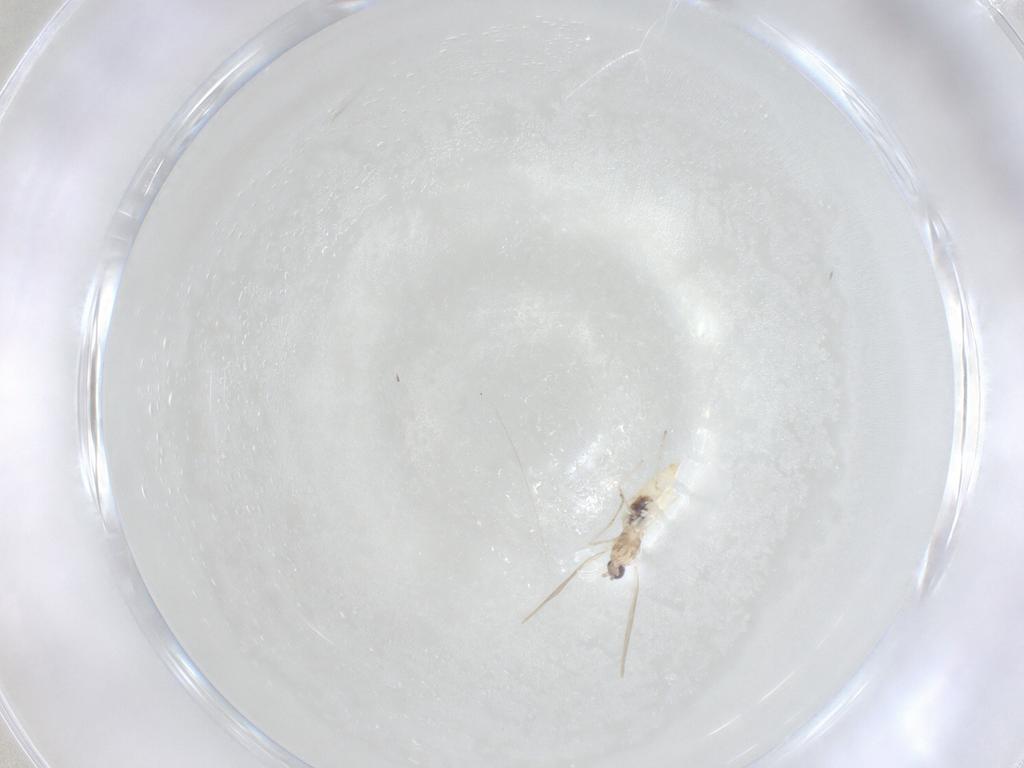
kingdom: Animalia
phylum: Arthropoda
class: Insecta
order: Diptera
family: Cecidomyiidae
